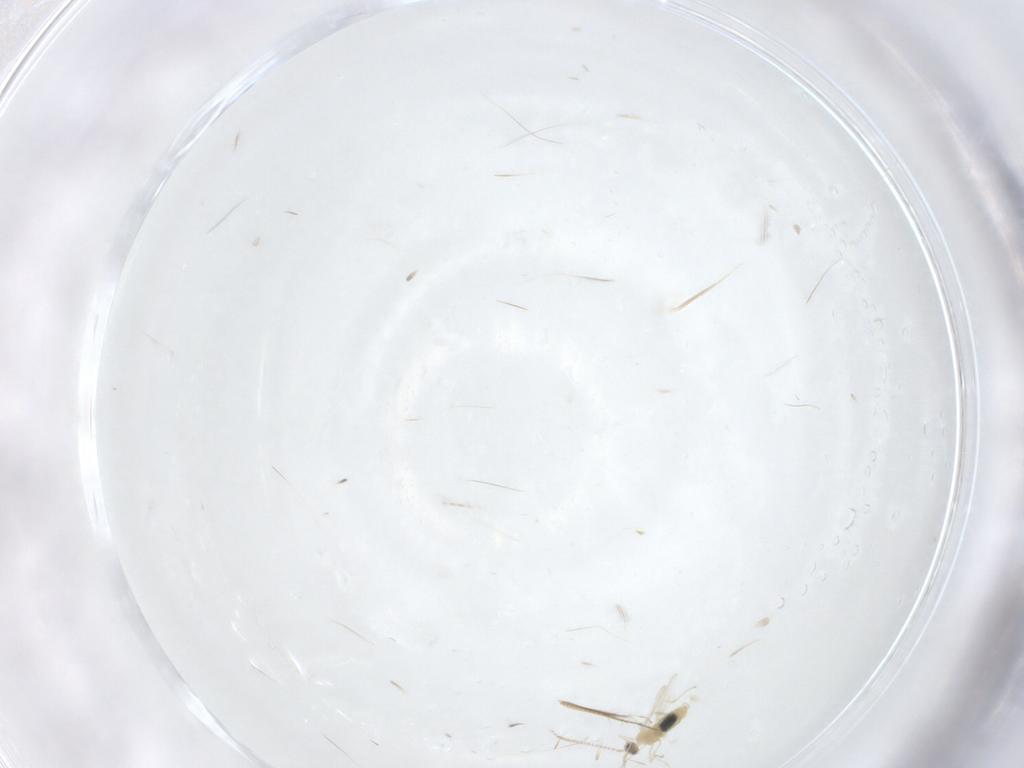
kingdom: Animalia
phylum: Arthropoda
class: Insecta
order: Diptera
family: Cecidomyiidae
